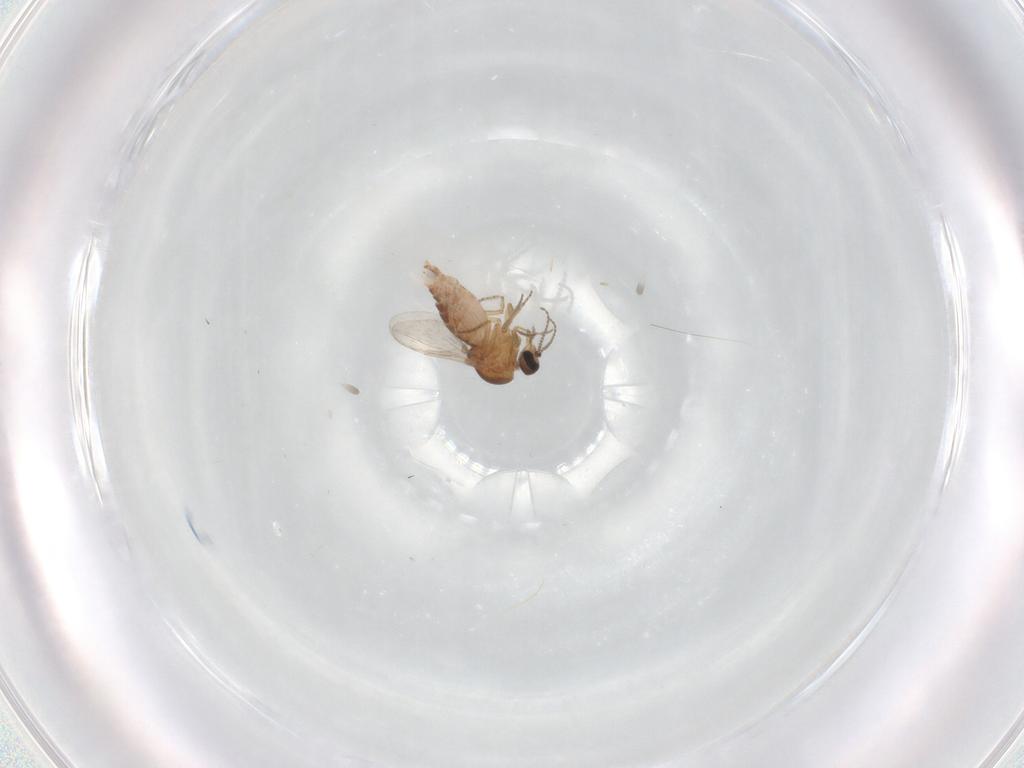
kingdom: Animalia
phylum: Arthropoda
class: Insecta
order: Diptera
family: Ceratopogonidae
